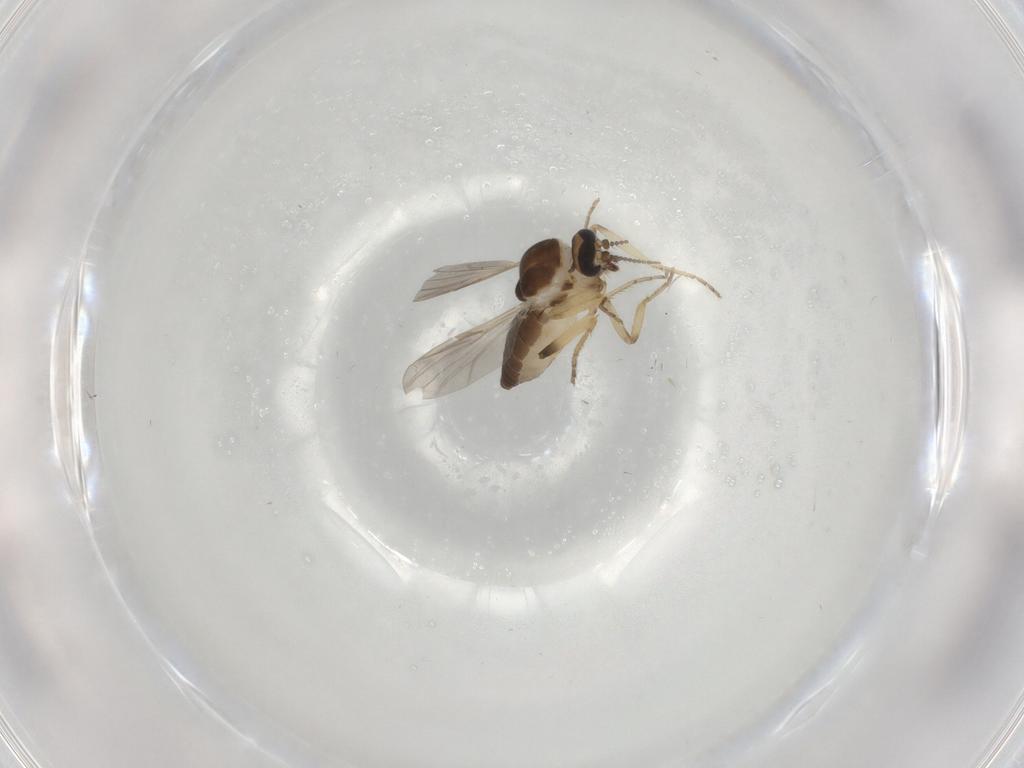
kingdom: Animalia
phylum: Arthropoda
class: Insecta
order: Diptera
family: Ceratopogonidae
